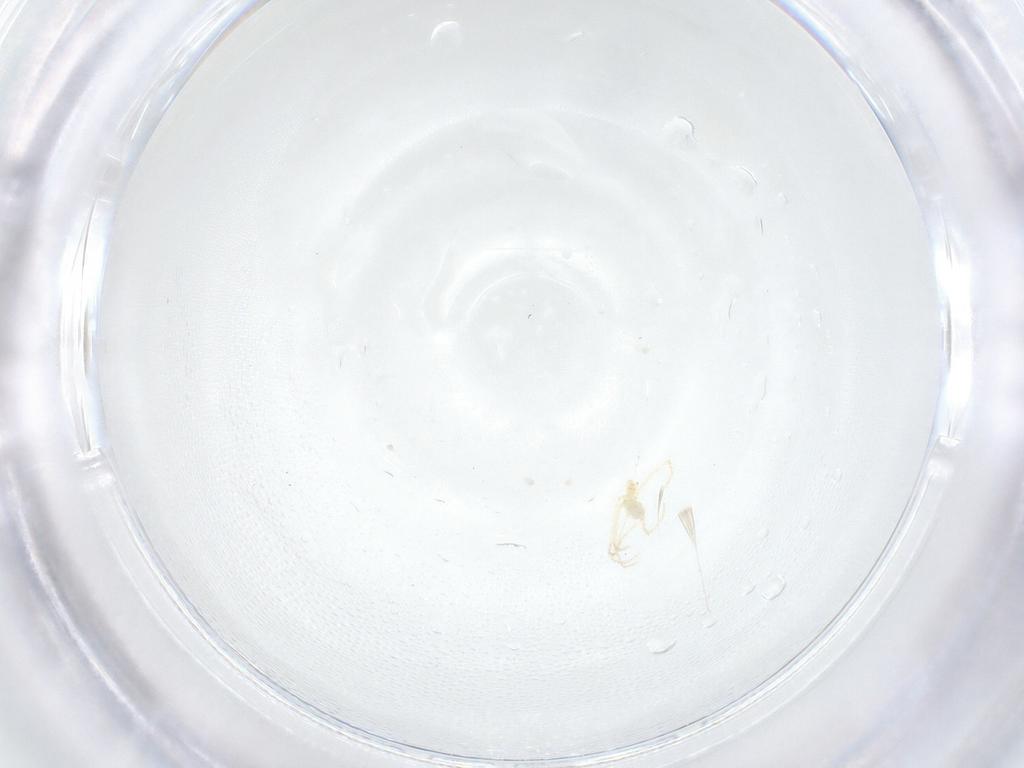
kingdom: Animalia
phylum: Arthropoda
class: Arachnida
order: Trombidiformes
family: Erythraeidae
